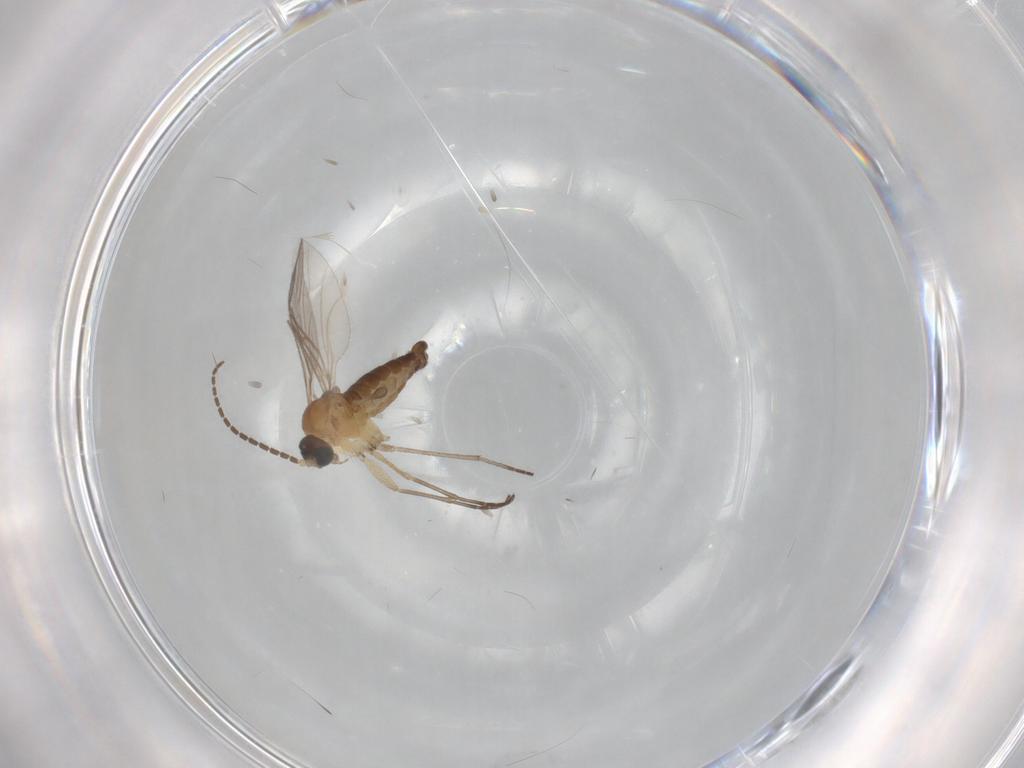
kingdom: Animalia
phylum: Arthropoda
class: Insecta
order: Diptera
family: Sciaridae
